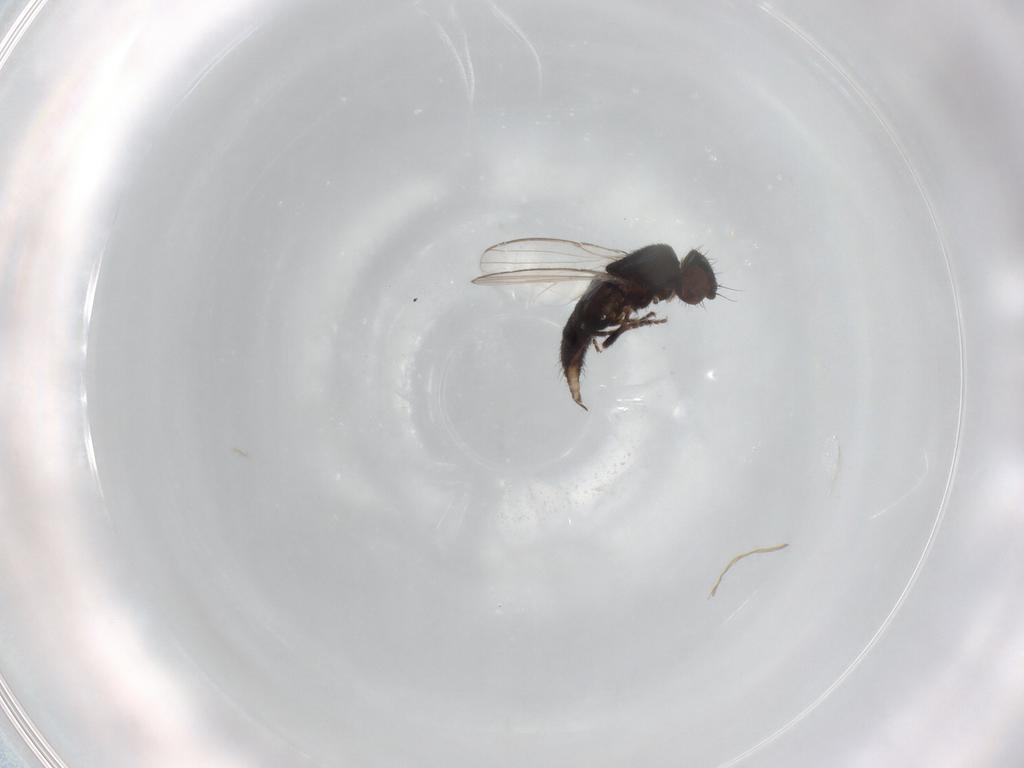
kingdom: Animalia
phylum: Arthropoda
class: Insecta
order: Diptera
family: Milichiidae
